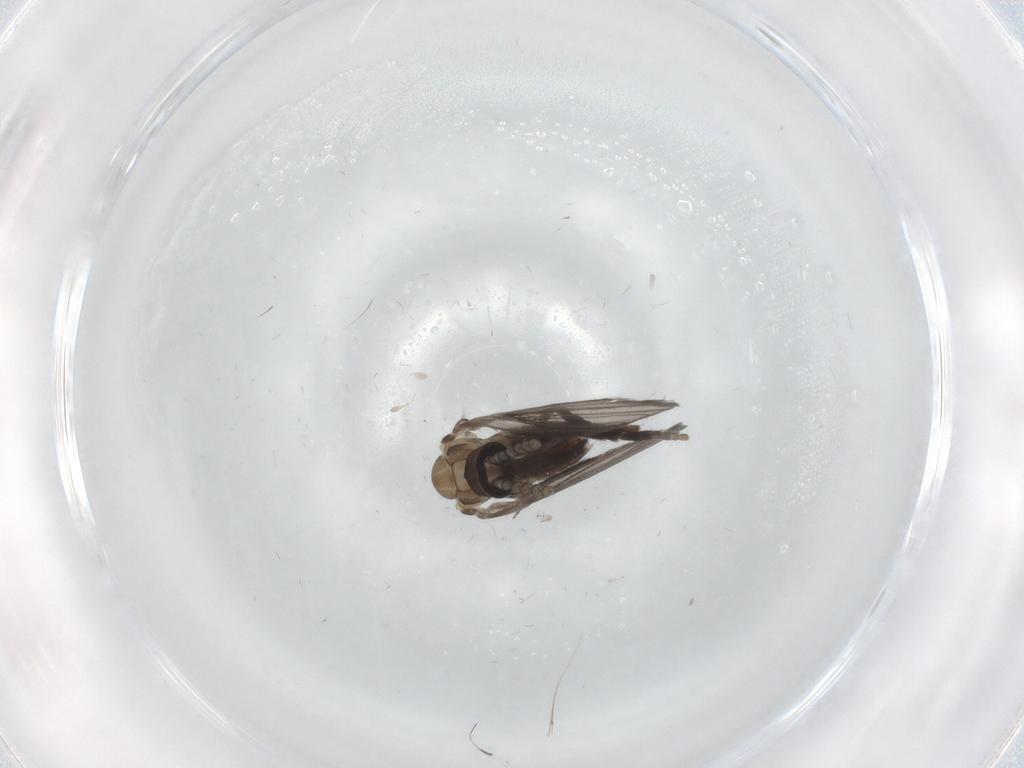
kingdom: Animalia
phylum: Arthropoda
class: Insecta
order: Diptera
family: Psychodidae
